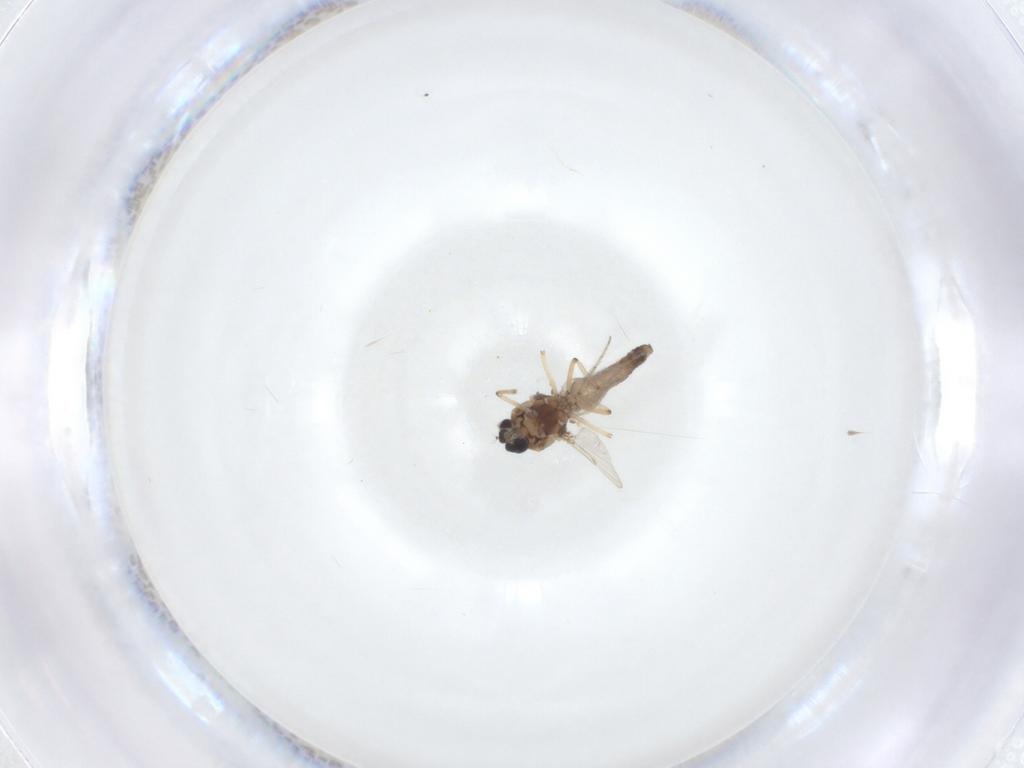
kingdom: Animalia
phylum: Arthropoda
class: Insecta
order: Diptera
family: Ceratopogonidae
